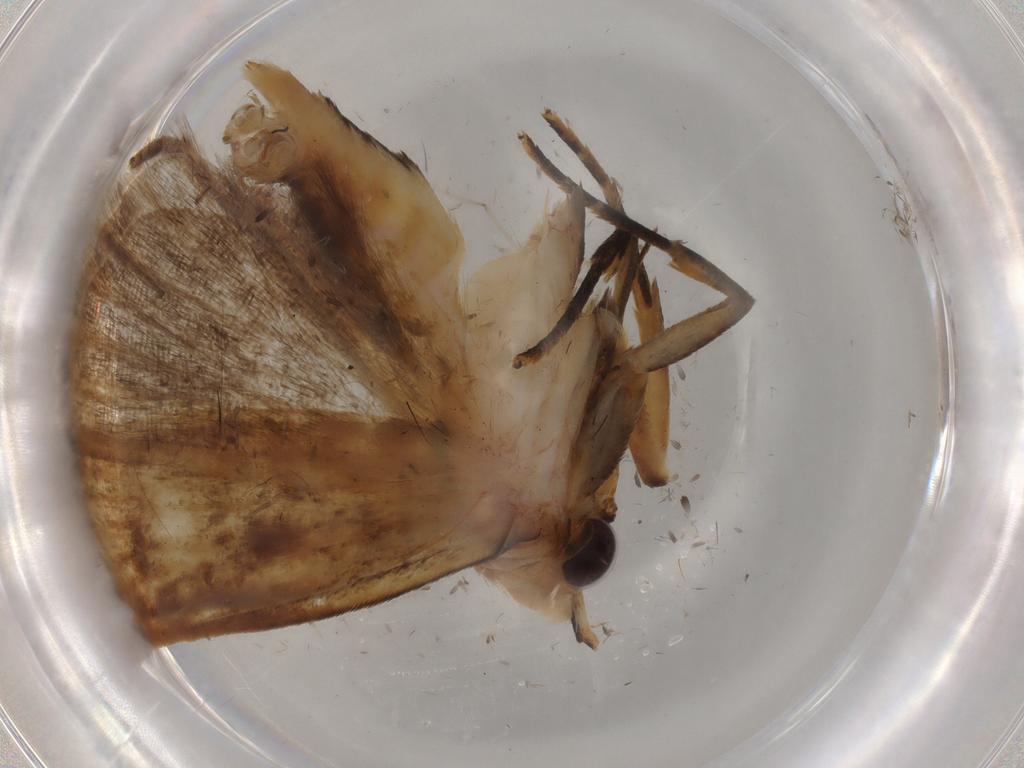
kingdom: Animalia
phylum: Arthropoda
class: Insecta
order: Lepidoptera
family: Gelechiidae
